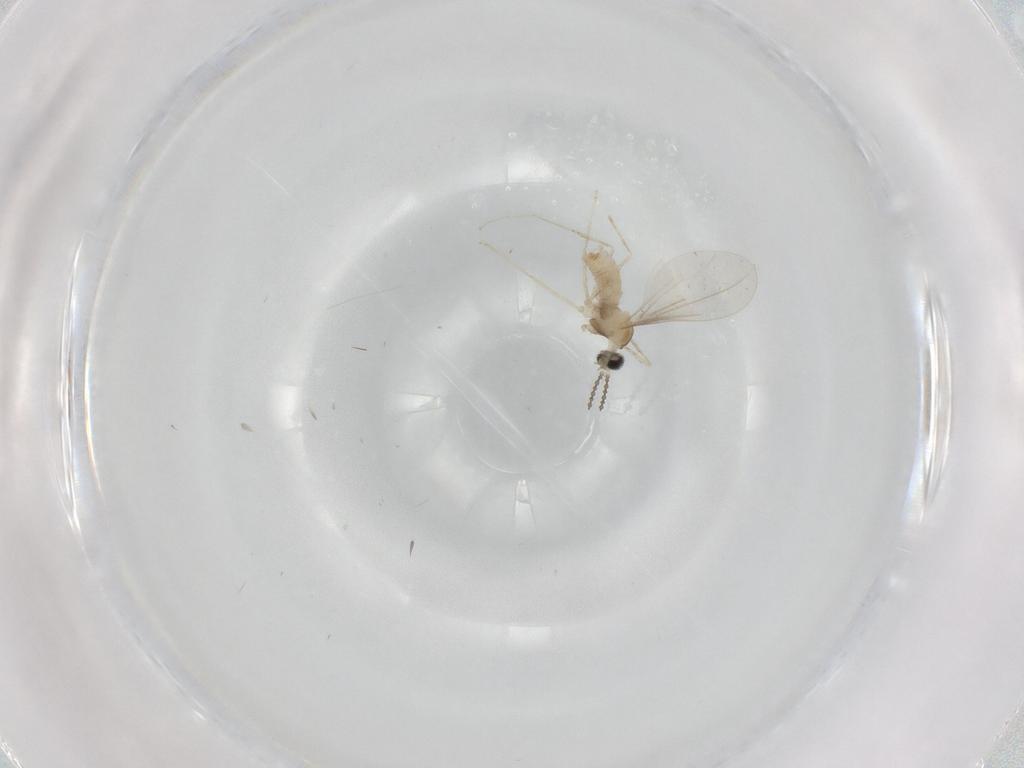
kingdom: Animalia
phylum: Arthropoda
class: Insecta
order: Diptera
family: Cecidomyiidae
